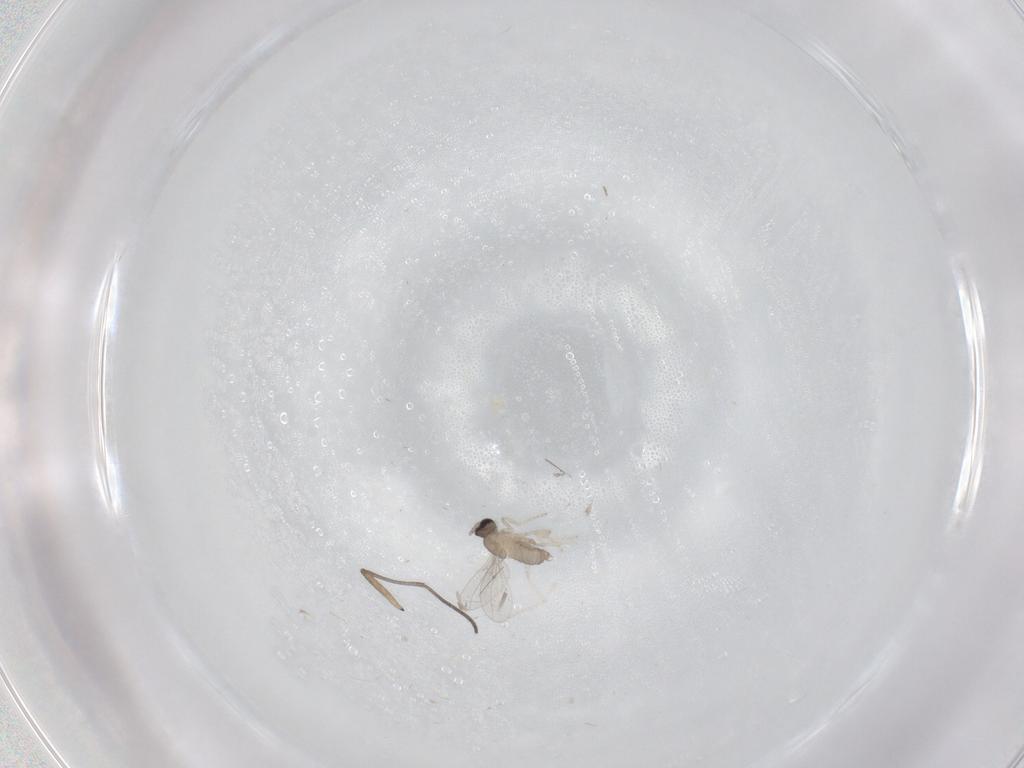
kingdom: Animalia
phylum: Arthropoda
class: Insecta
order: Diptera
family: Cecidomyiidae
